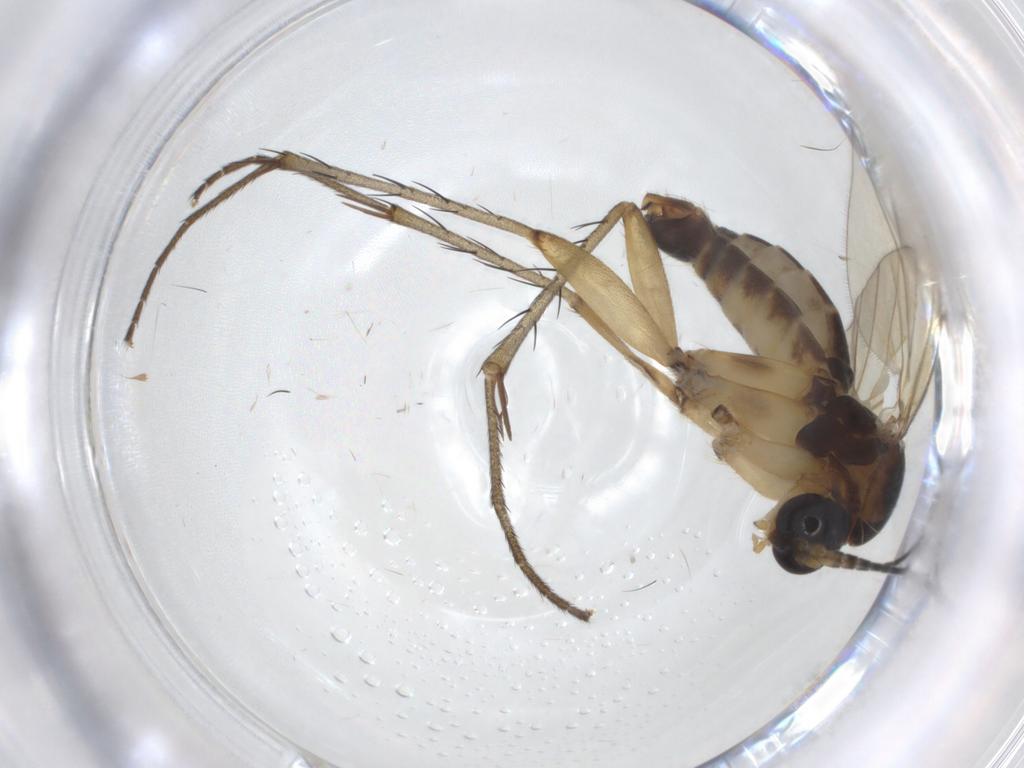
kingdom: Animalia
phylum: Arthropoda
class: Insecta
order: Diptera
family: Mycetophilidae
